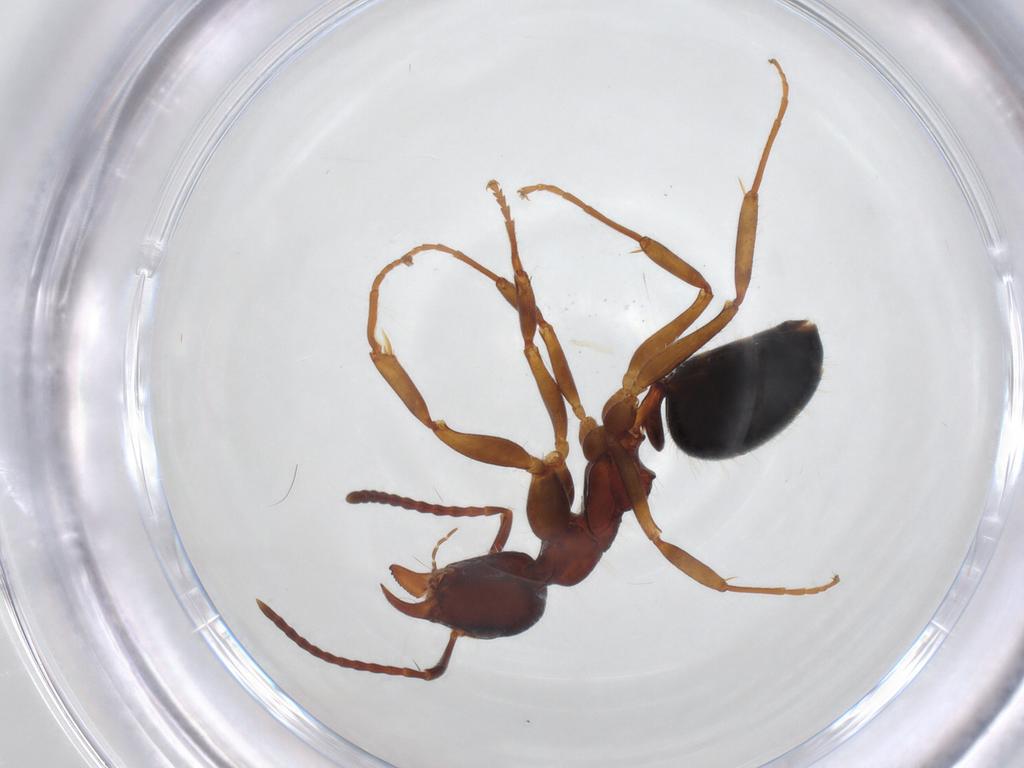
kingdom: Animalia
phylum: Arthropoda
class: Insecta
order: Hymenoptera
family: Formicidae
